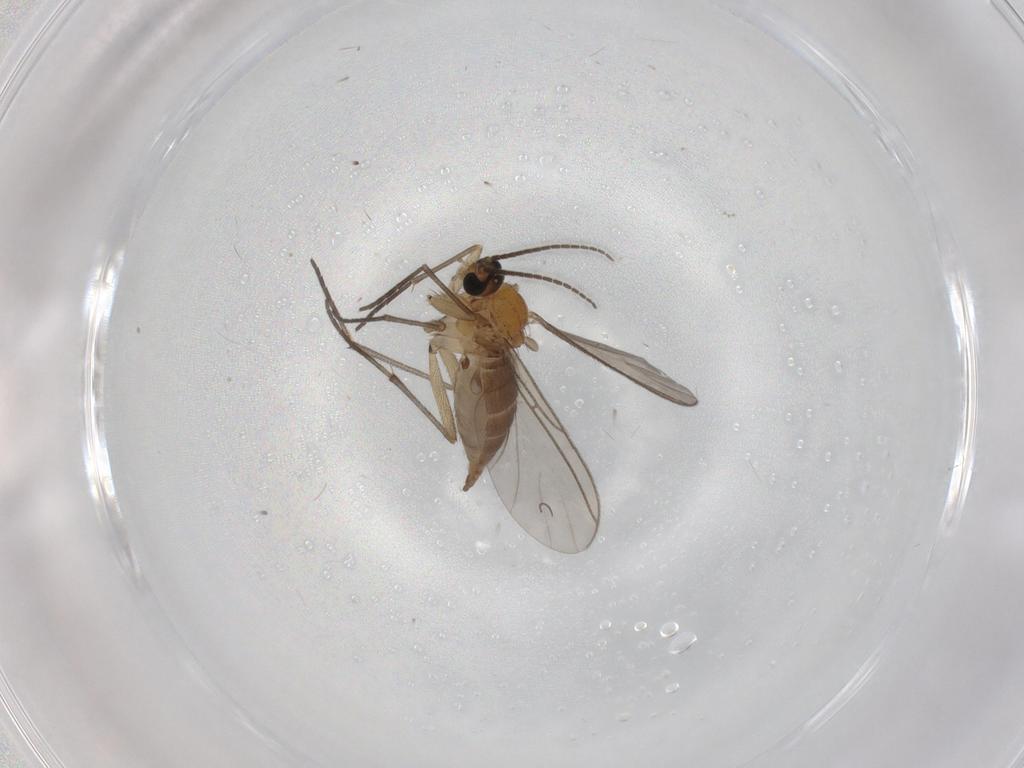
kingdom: Animalia
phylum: Arthropoda
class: Insecta
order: Diptera
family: Sciaridae
